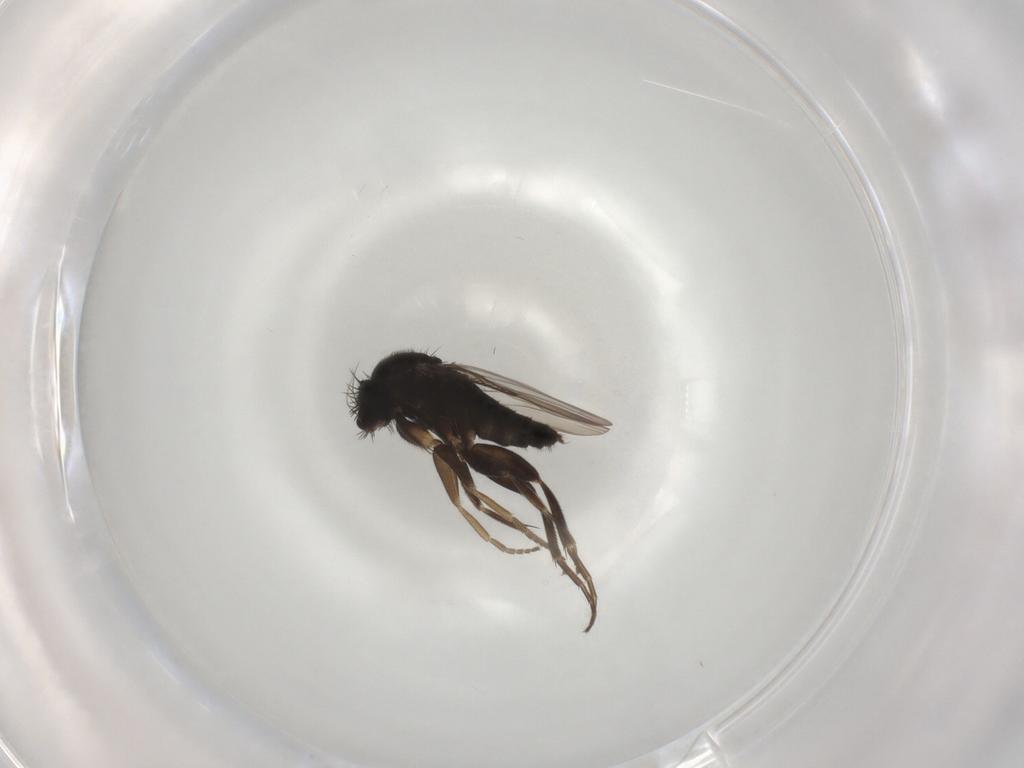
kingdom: Animalia
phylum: Arthropoda
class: Insecta
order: Diptera
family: Phoridae
